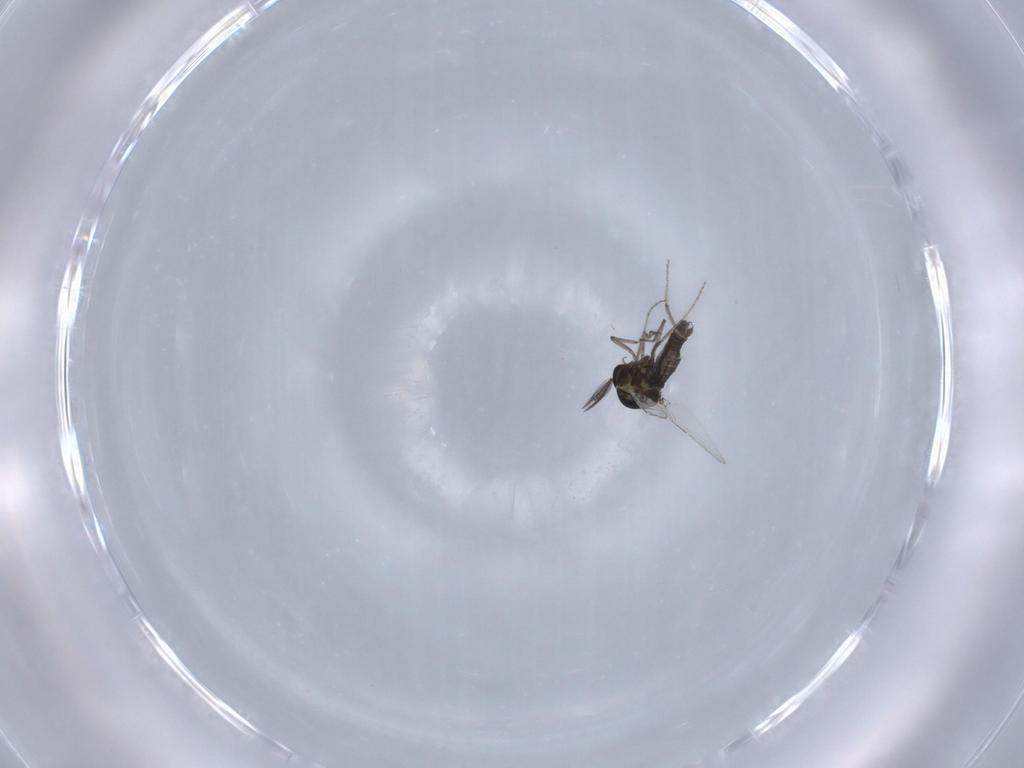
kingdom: Animalia
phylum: Arthropoda
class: Insecta
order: Diptera
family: Ceratopogonidae
